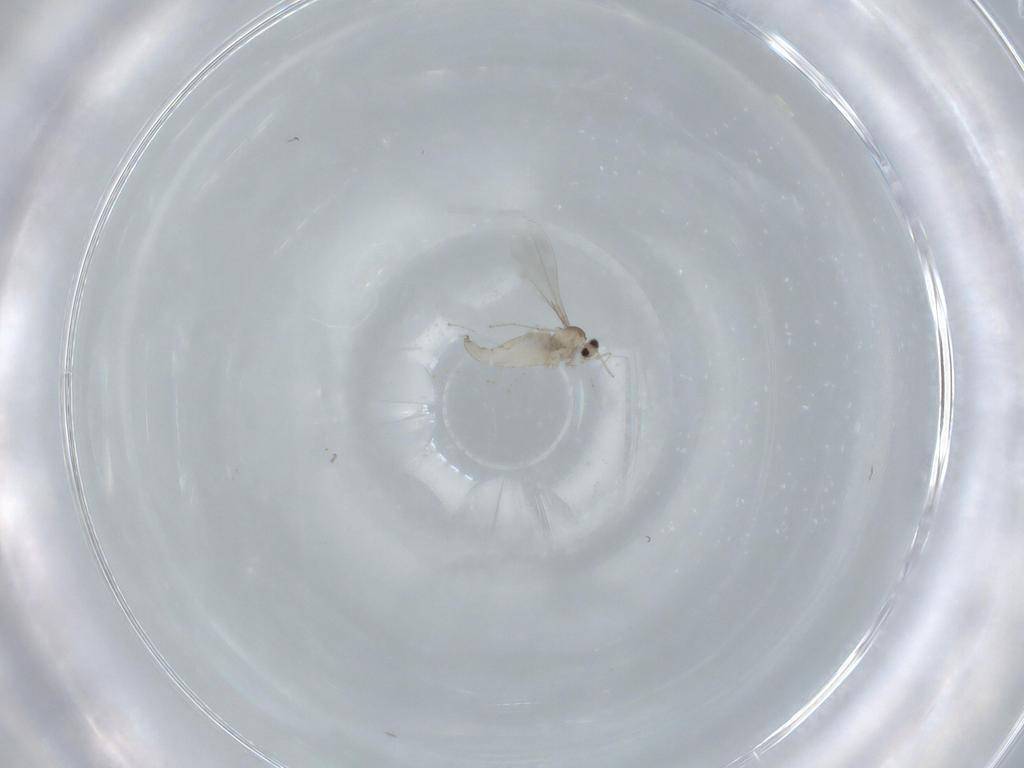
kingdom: Animalia
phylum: Arthropoda
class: Insecta
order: Diptera
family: Cecidomyiidae
